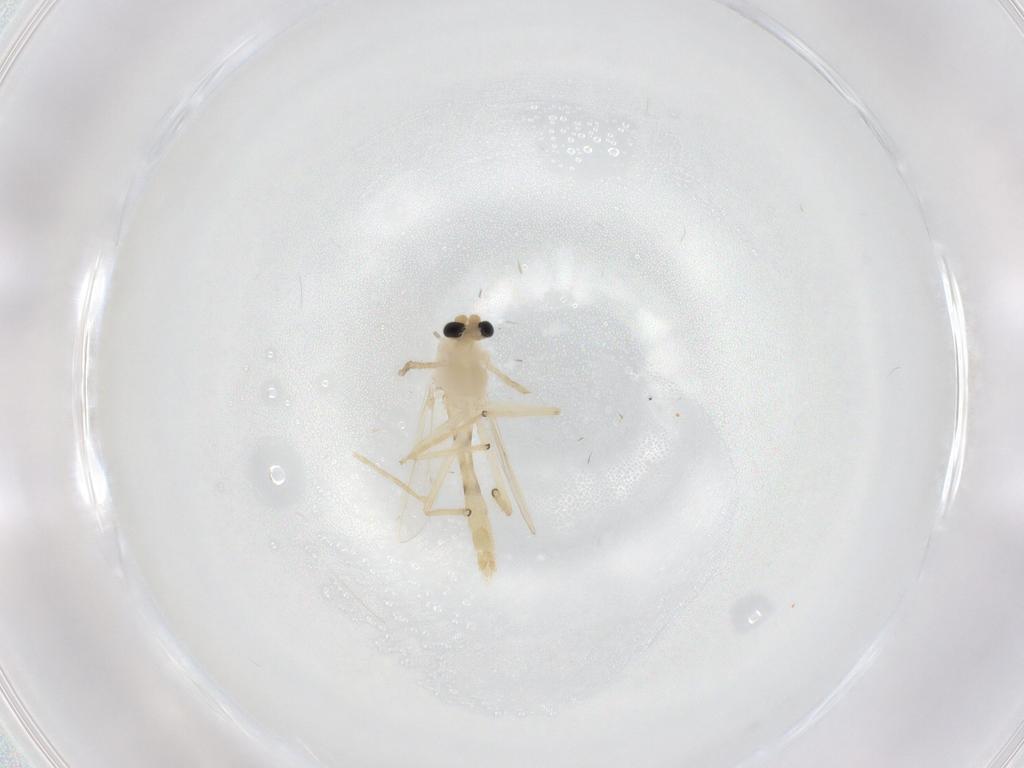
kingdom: Animalia
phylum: Arthropoda
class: Insecta
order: Diptera
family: Chironomidae
